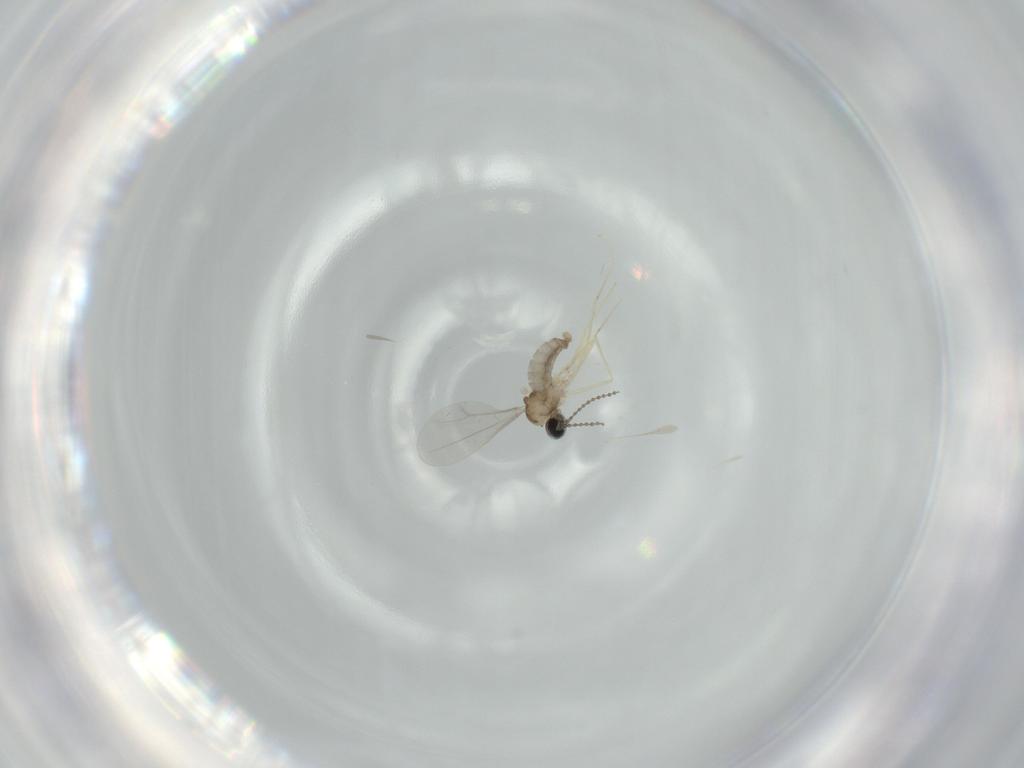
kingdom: Animalia
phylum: Arthropoda
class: Insecta
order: Diptera
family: Cecidomyiidae
